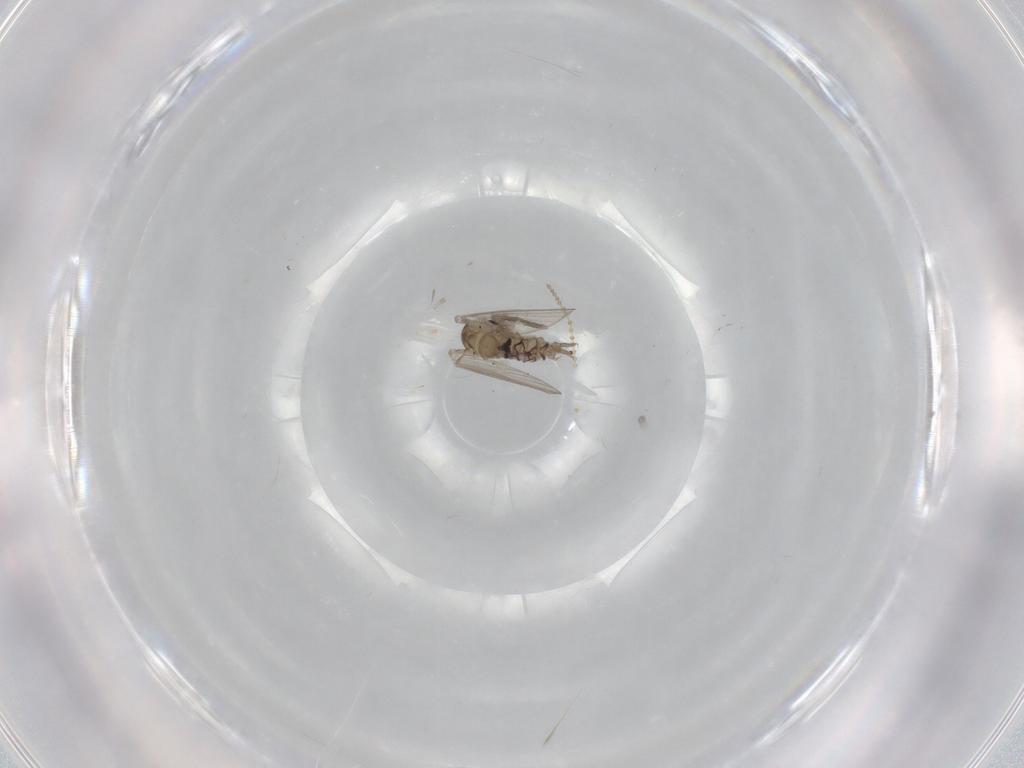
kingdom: Animalia
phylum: Arthropoda
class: Insecta
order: Diptera
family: Psychodidae
